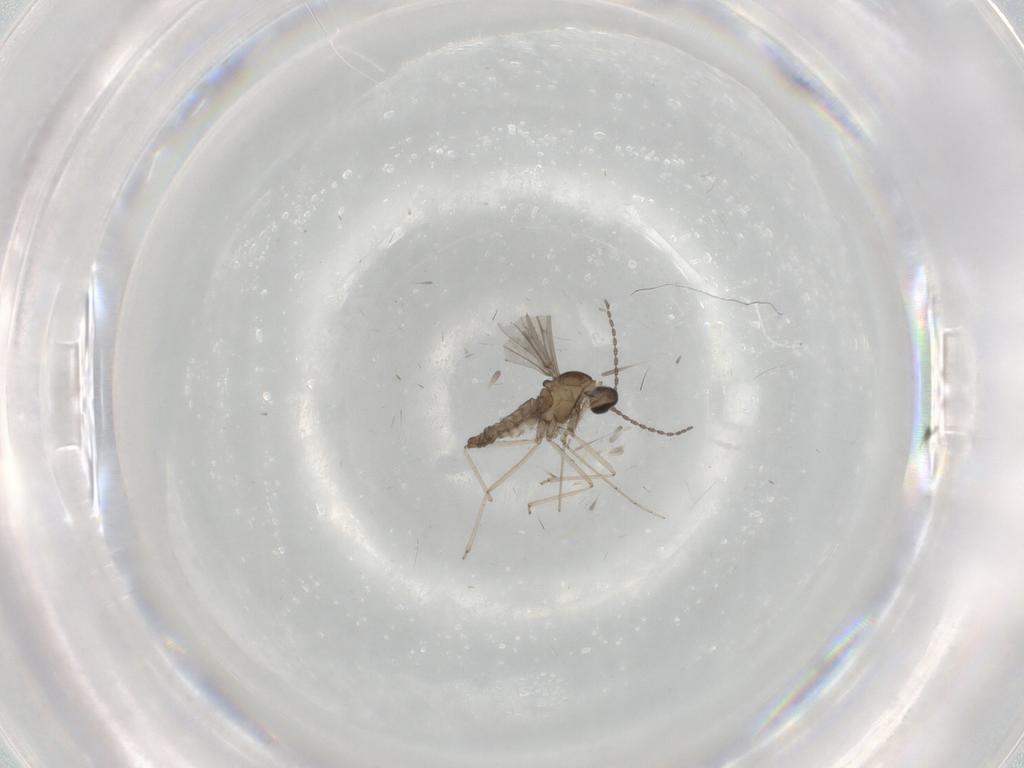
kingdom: Animalia
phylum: Arthropoda
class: Insecta
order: Diptera
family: Cecidomyiidae
